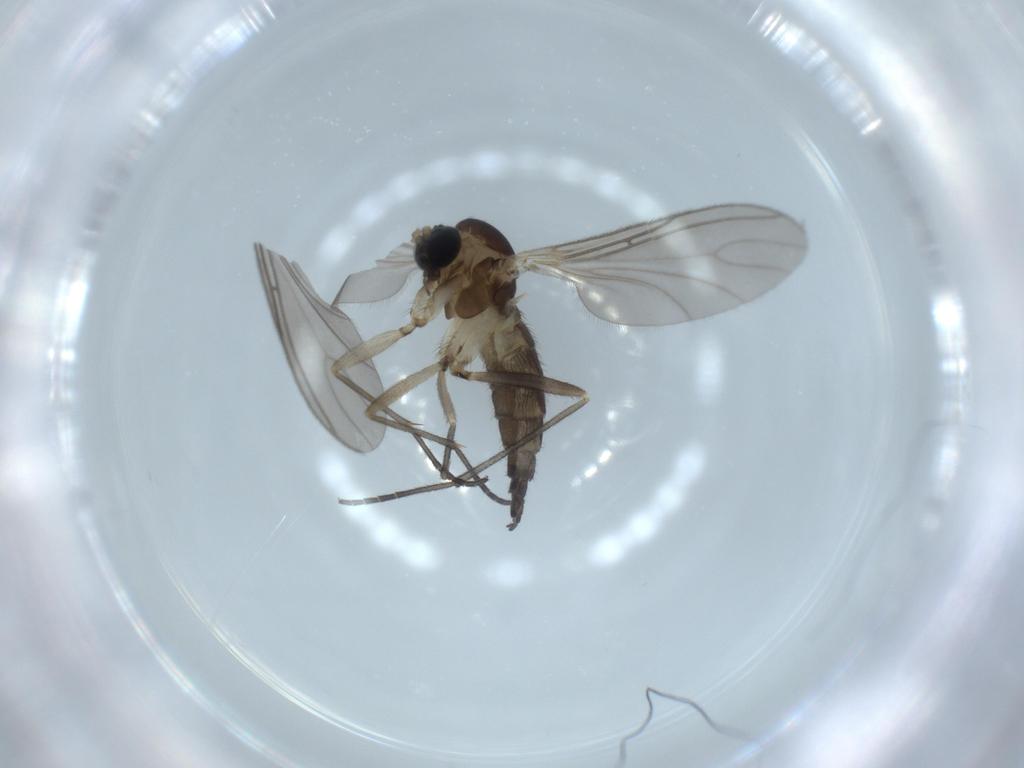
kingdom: Animalia
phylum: Arthropoda
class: Insecta
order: Diptera
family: Sciaridae
